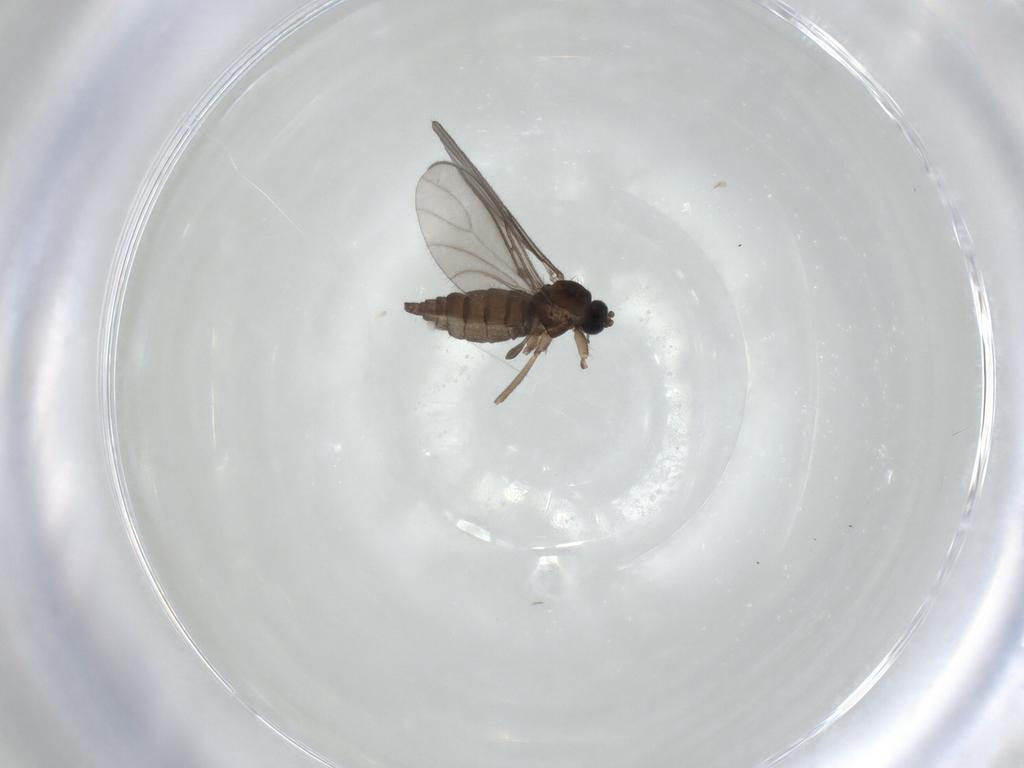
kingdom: Animalia
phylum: Arthropoda
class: Insecta
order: Diptera
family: Sciaridae
